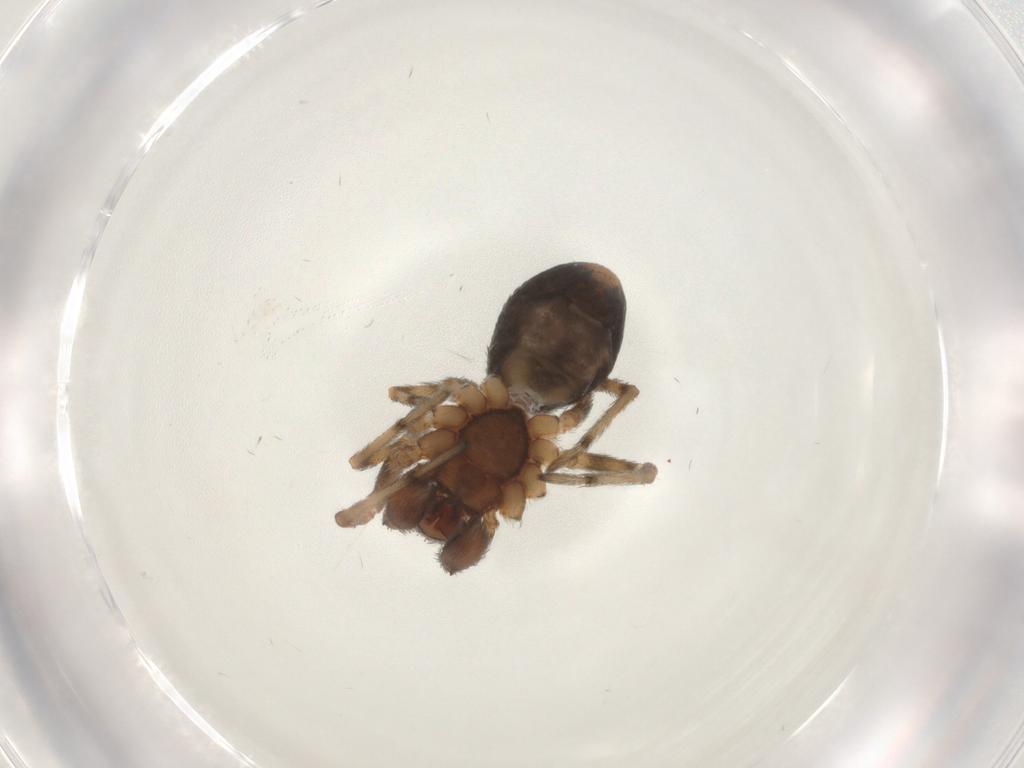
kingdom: Animalia
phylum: Arthropoda
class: Arachnida
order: Araneae
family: Dictynidae
